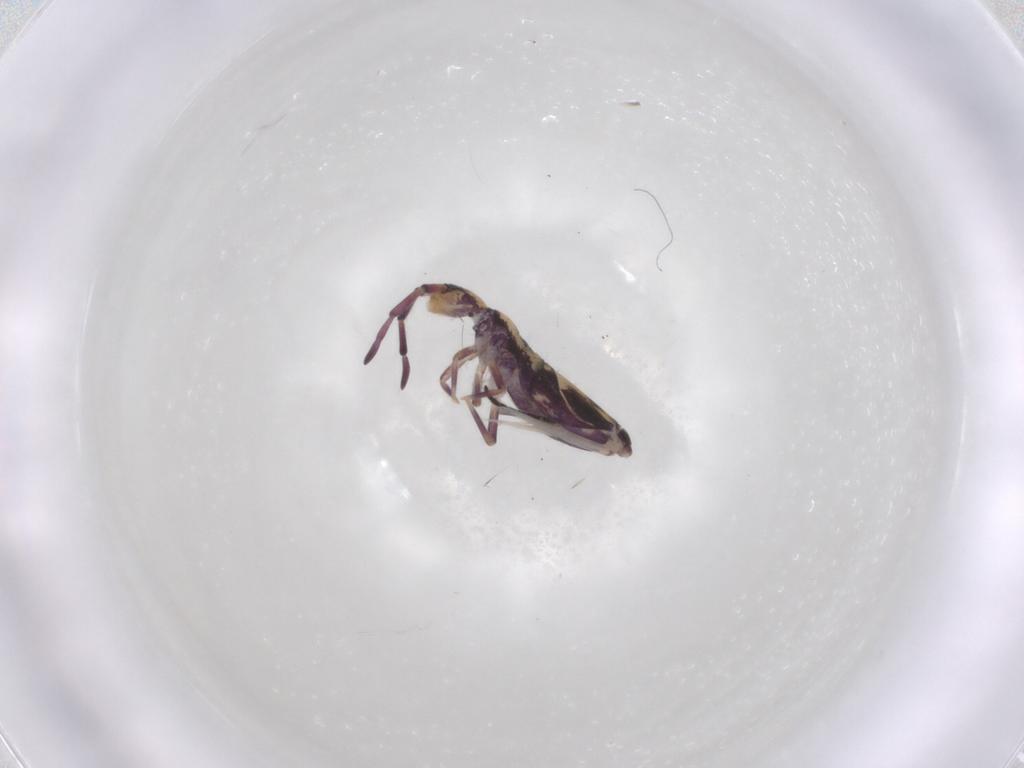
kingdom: Animalia
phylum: Arthropoda
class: Collembola
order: Entomobryomorpha
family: Entomobryidae
